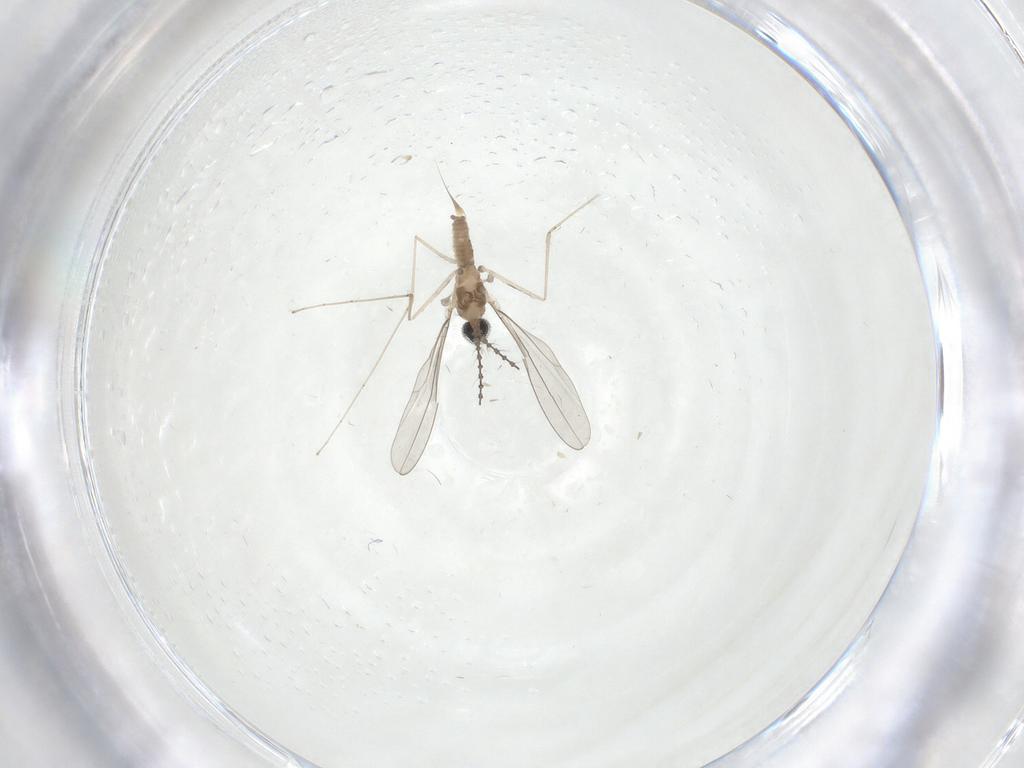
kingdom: Animalia
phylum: Arthropoda
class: Insecta
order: Diptera
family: Cecidomyiidae
